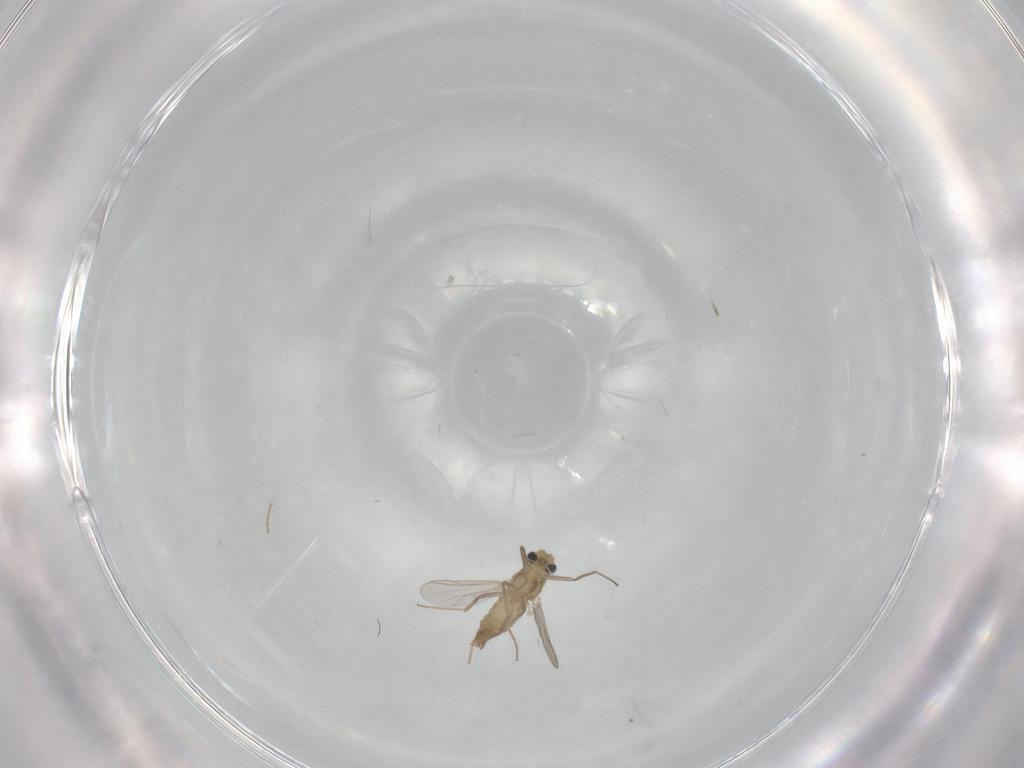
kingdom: Animalia
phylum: Arthropoda
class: Insecta
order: Diptera
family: Chironomidae
